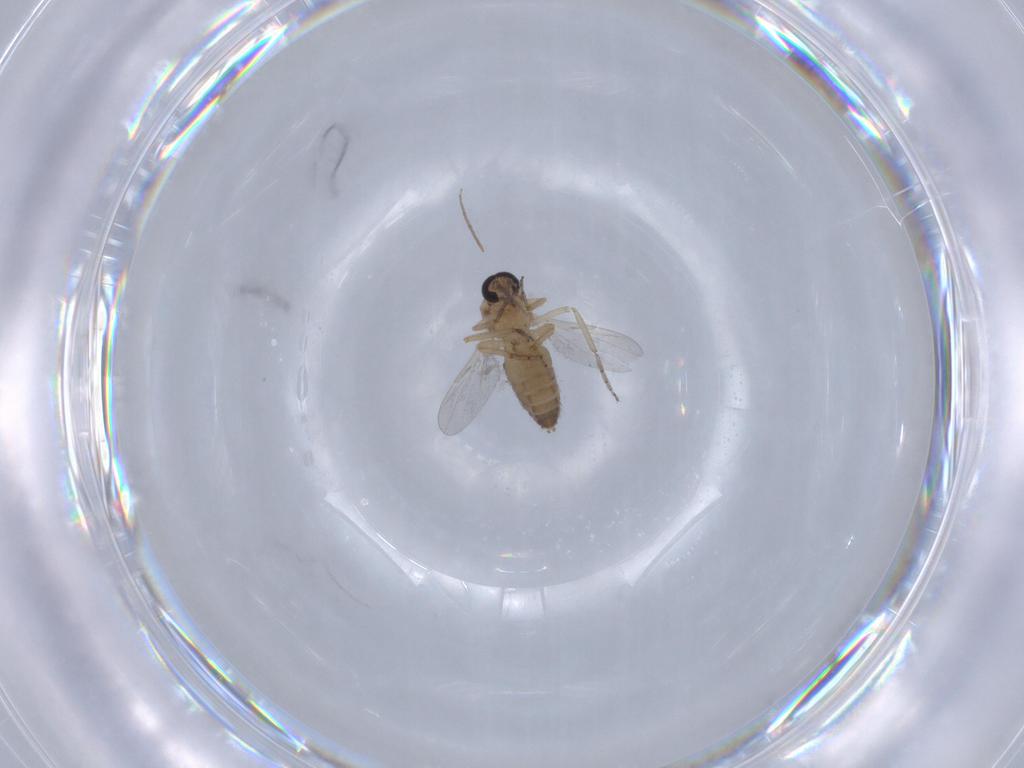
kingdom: Animalia
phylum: Arthropoda
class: Insecta
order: Diptera
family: Ceratopogonidae
